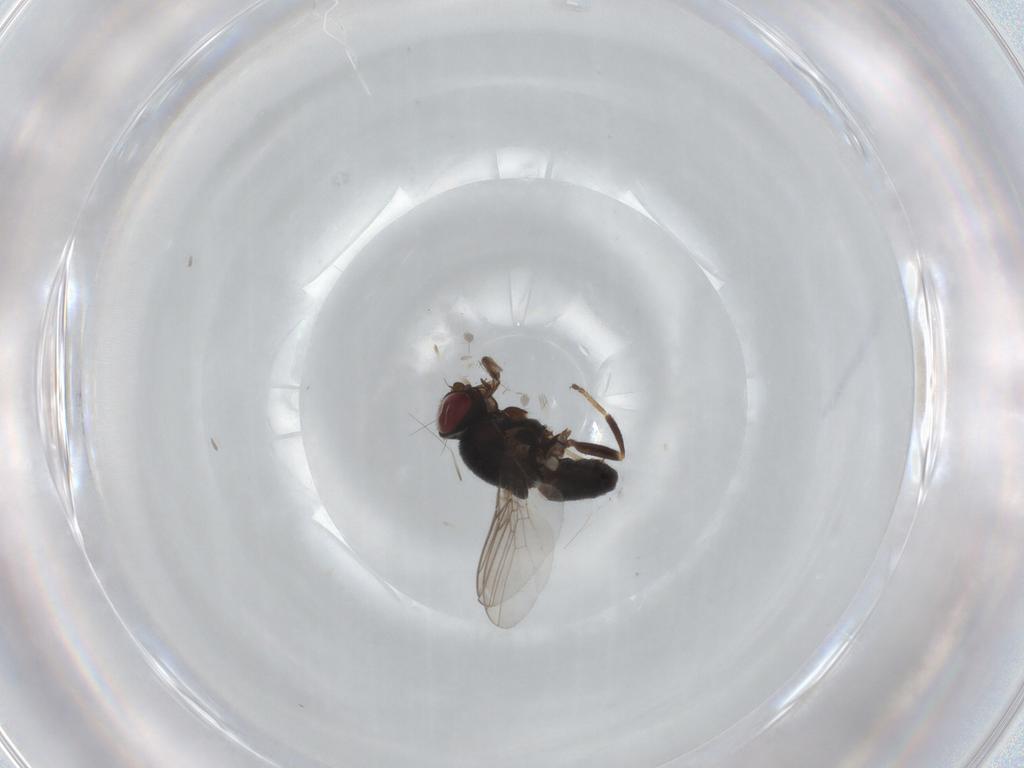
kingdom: Animalia
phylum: Arthropoda
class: Insecta
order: Diptera
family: Chloropidae
